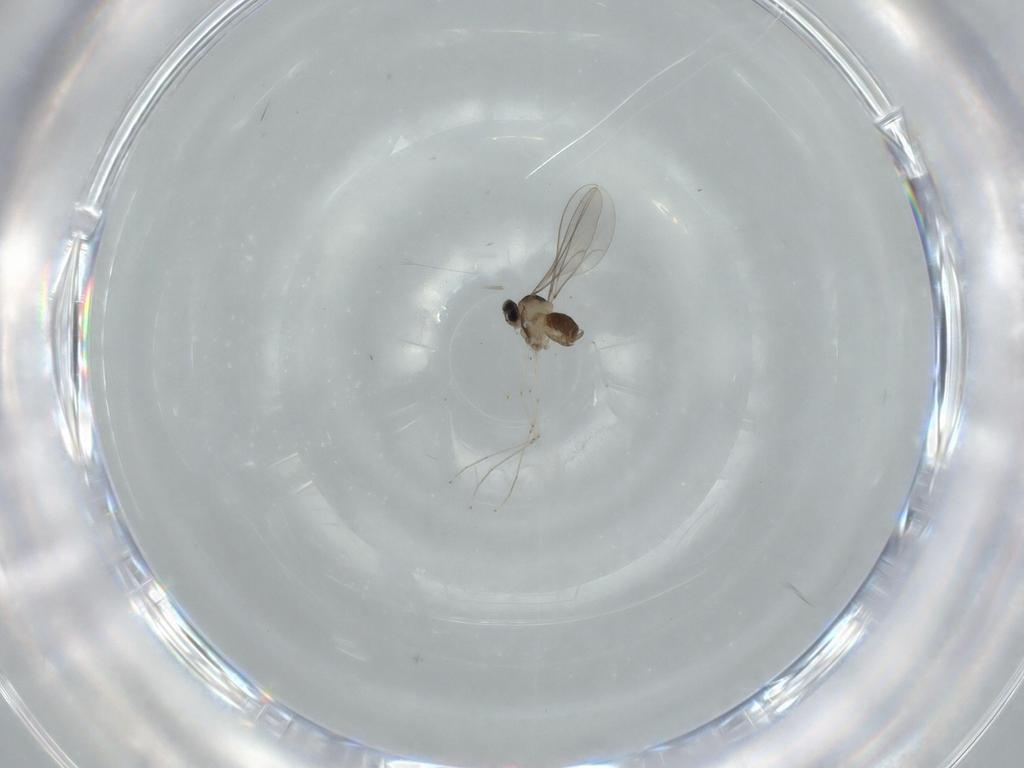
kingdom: Animalia
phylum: Arthropoda
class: Insecta
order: Diptera
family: Cecidomyiidae
